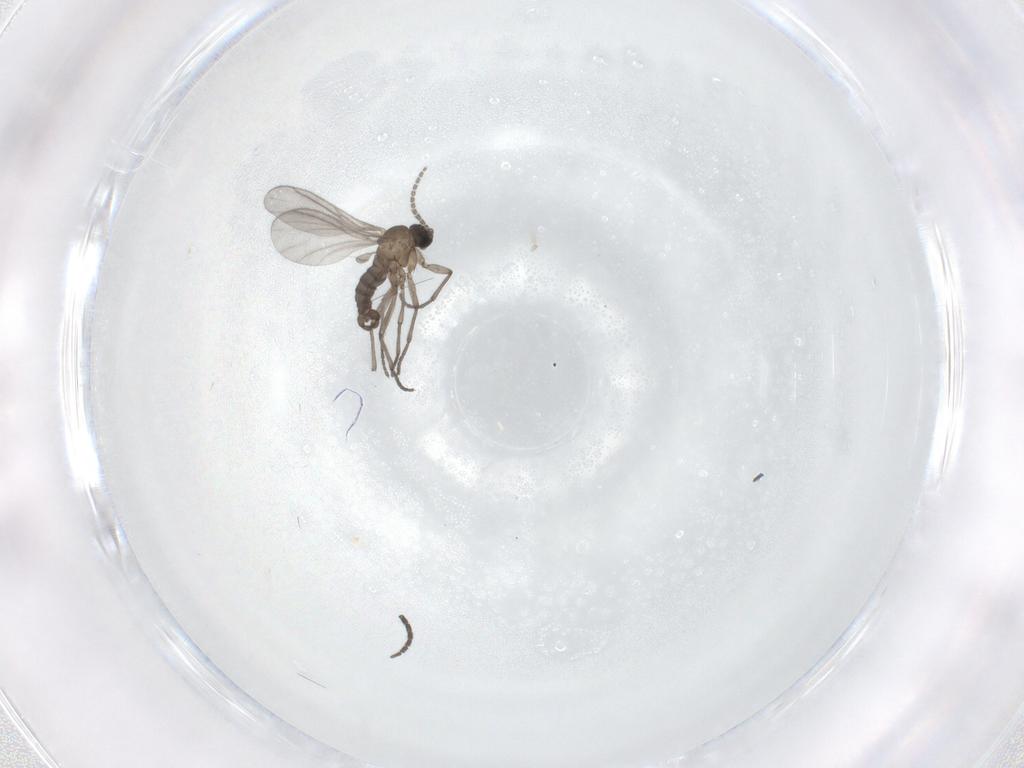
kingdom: Animalia
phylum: Arthropoda
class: Insecta
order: Diptera
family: Sciaridae
